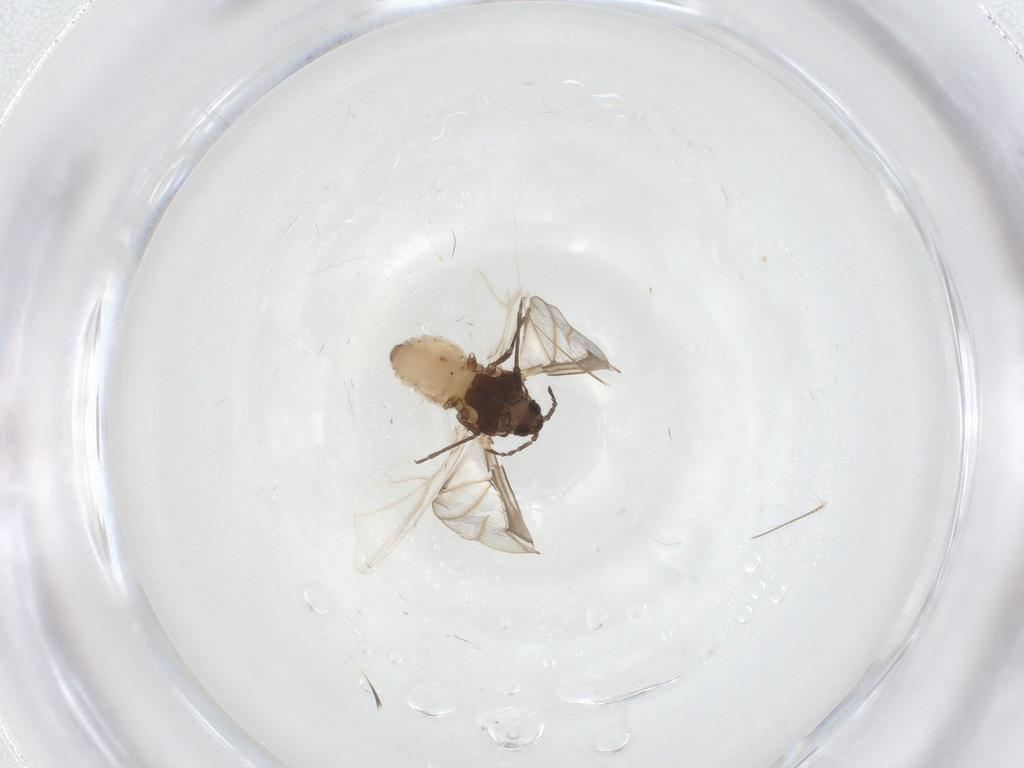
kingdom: Animalia
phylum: Arthropoda
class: Insecta
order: Hemiptera
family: Aphididae
